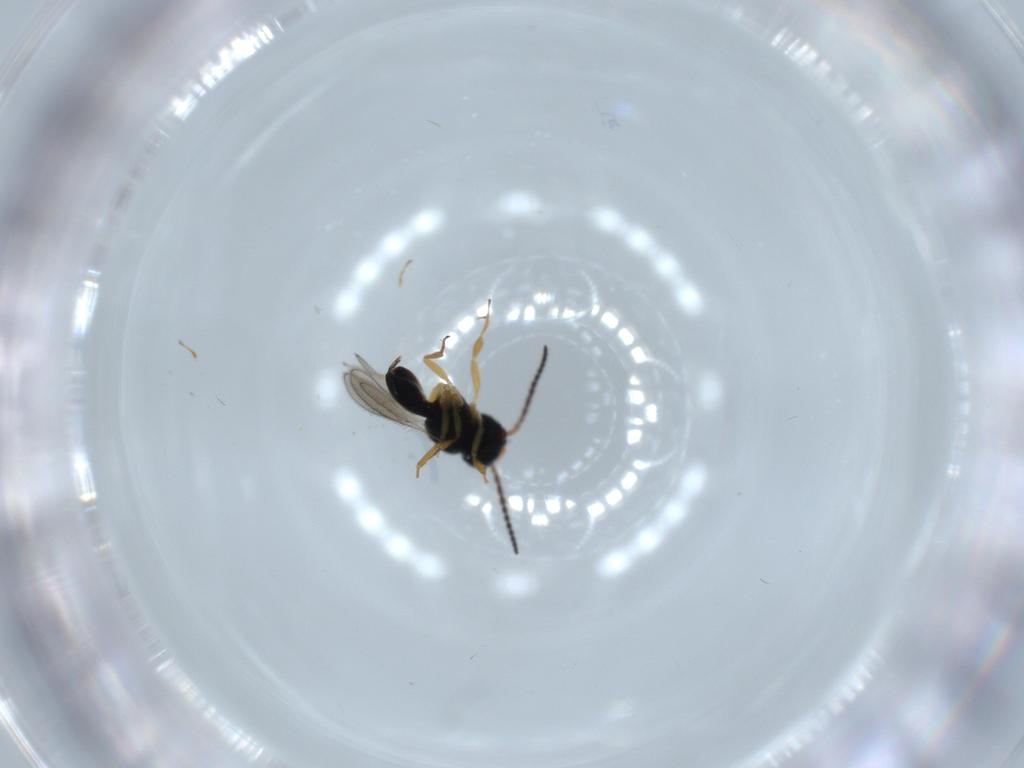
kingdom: Animalia
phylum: Arthropoda
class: Insecta
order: Hymenoptera
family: Scelionidae
